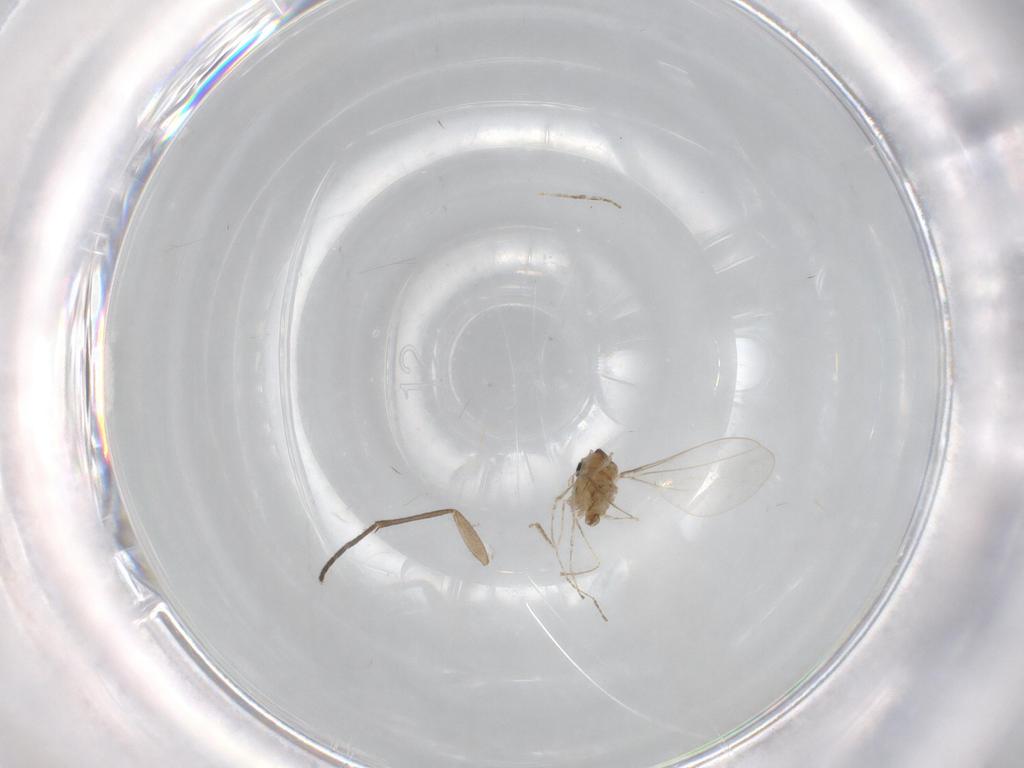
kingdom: Animalia
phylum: Arthropoda
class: Insecta
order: Diptera
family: Cecidomyiidae
